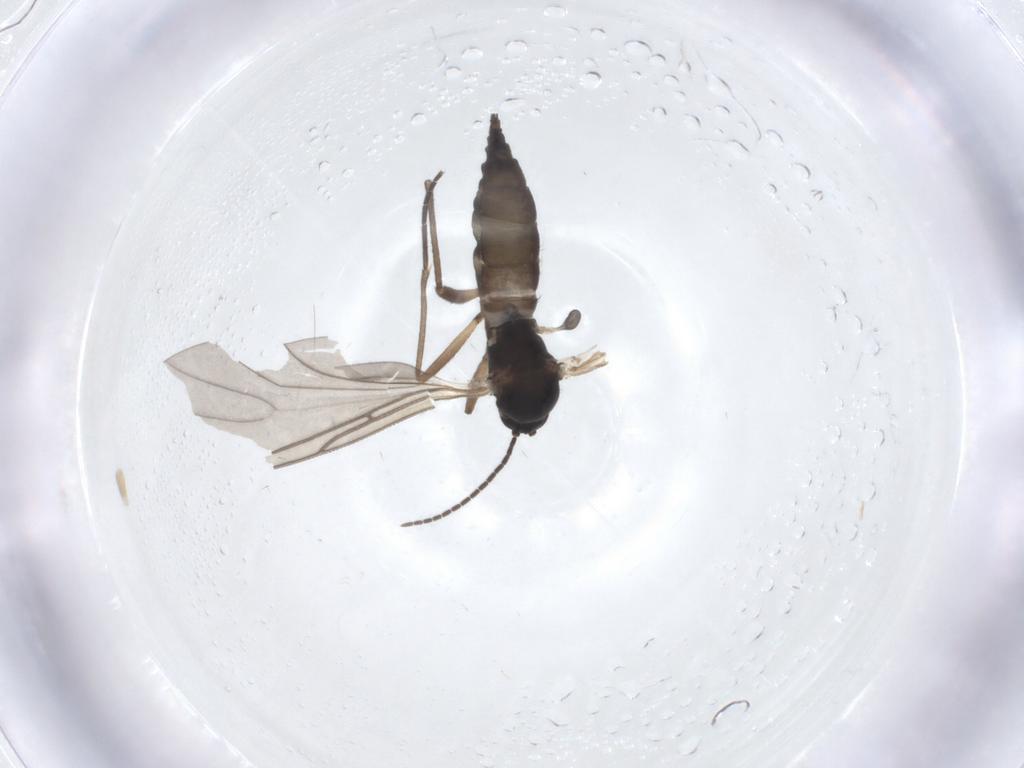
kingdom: Animalia
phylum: Arthropoda
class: Insecta
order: Diptera
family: Sciaridae
